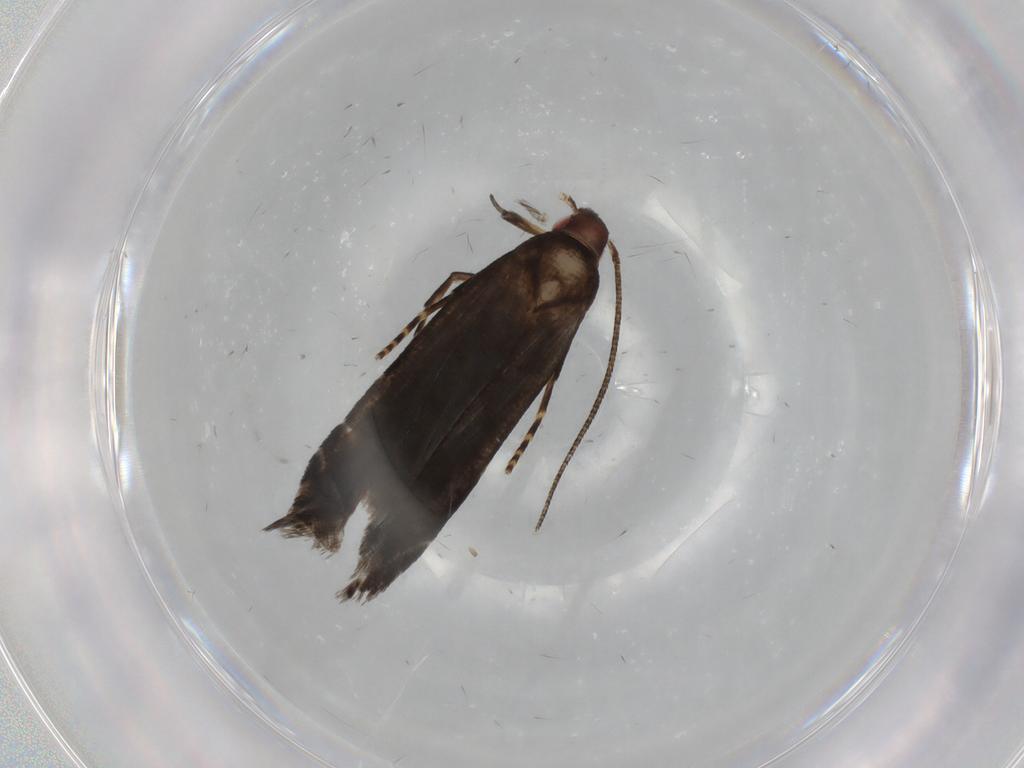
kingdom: Animalia
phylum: Arthropoda
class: Insecta
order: Lepidoptera
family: Gelechiidae
